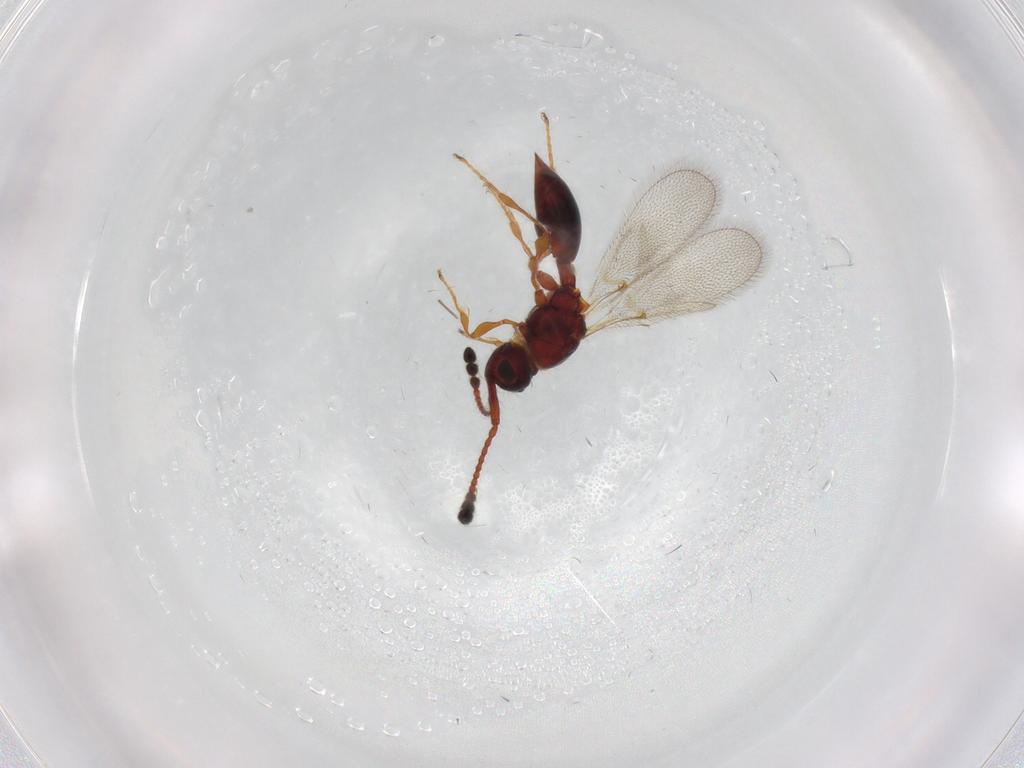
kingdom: Animalia
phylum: Arthropoda
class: Insecta
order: Hymenoptera
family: Diapriidae
